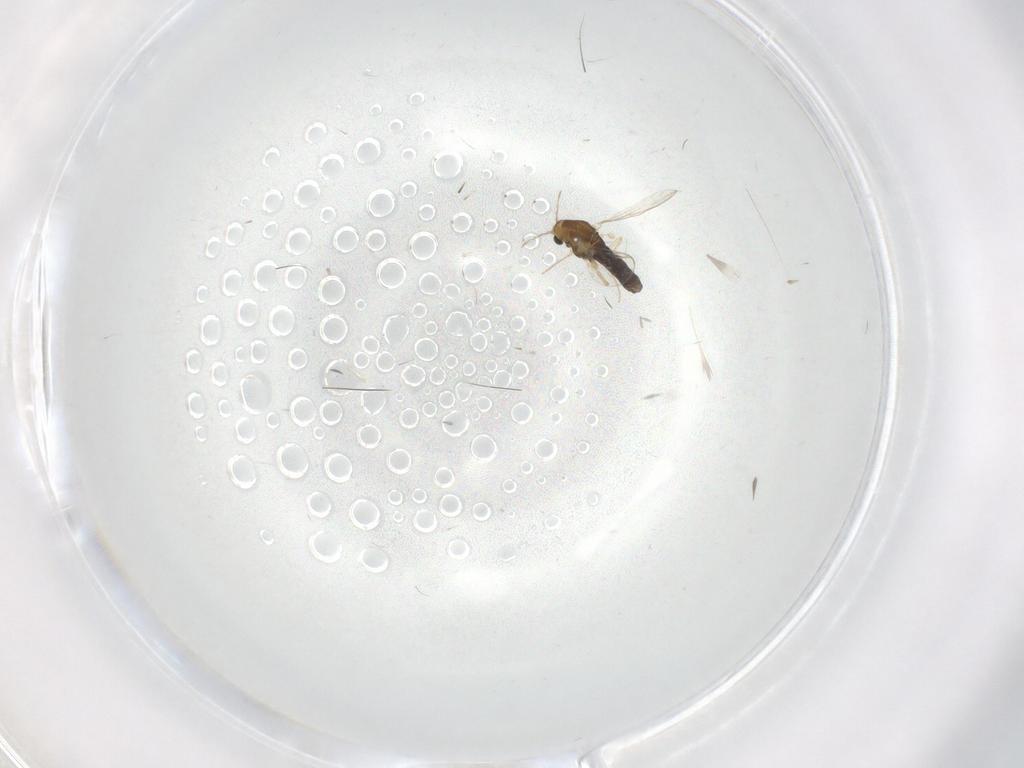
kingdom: Animalia
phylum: Arthropoda
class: Insecta
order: Diptera
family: Chironomidae
